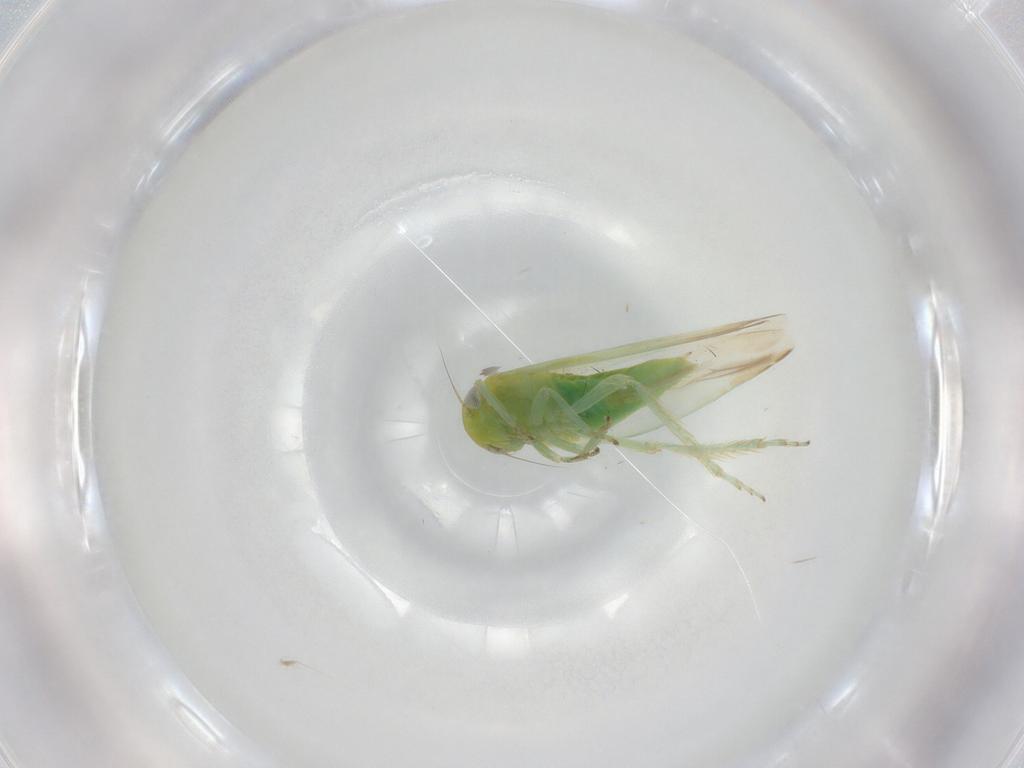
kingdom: Animalia
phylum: Arthropoda
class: Insecta
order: Hemiptera
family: Cicadellidae
